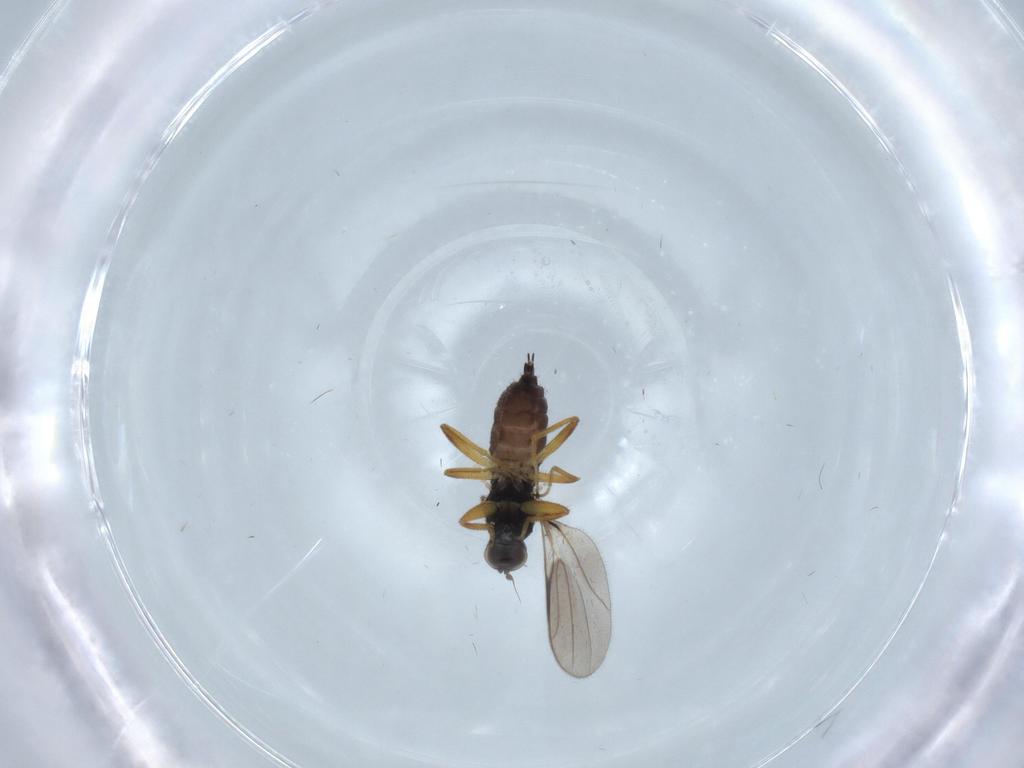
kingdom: Animalia
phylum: Arthropoda
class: Insecta
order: Diptera
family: Hybotidae
